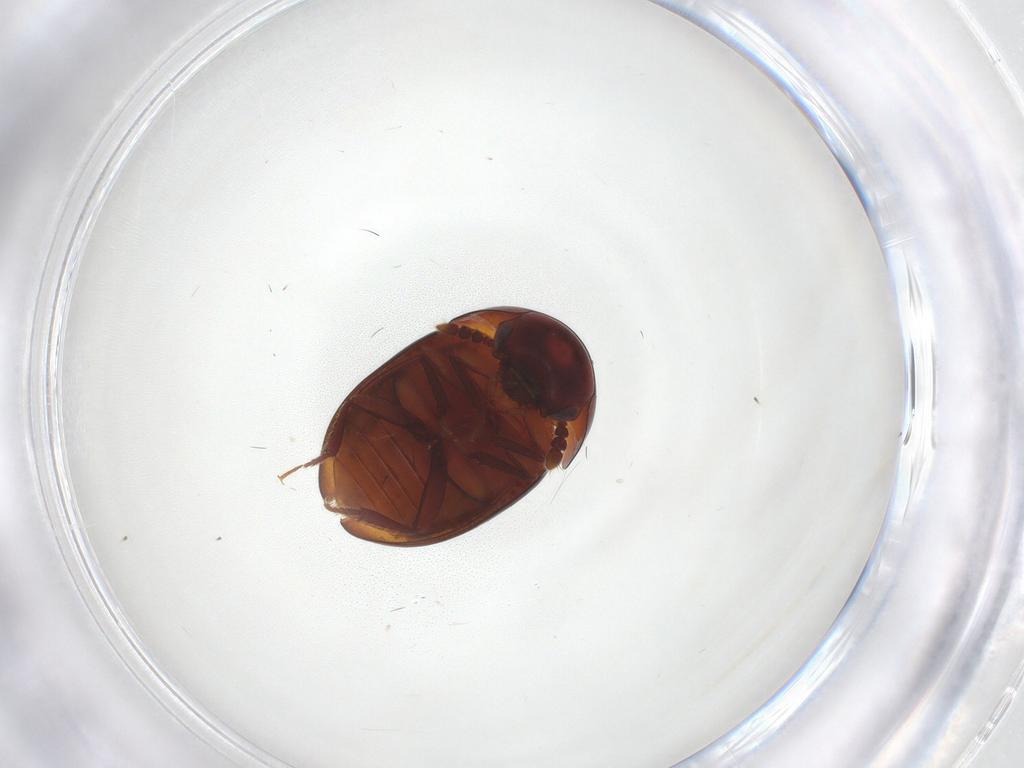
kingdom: Animalia
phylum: Arthropoda
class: Insecta
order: Coleoptera
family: Leiodidae
